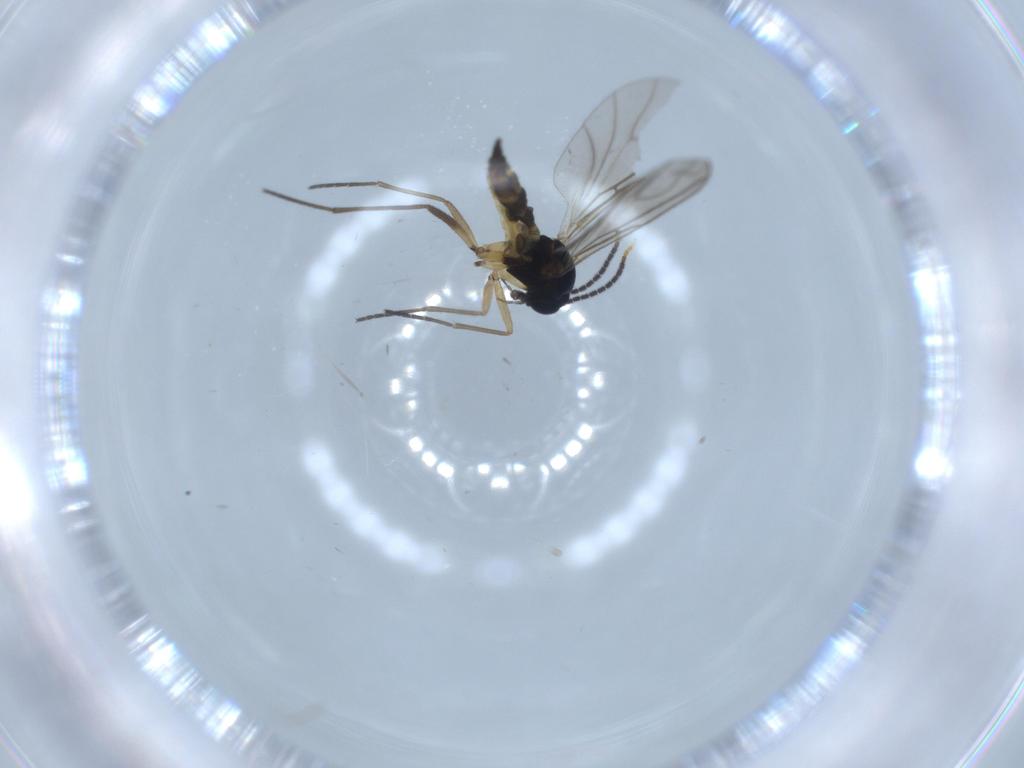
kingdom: Animalia
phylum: Arthropoda
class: Insecta
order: Diptera
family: Sciaridae
